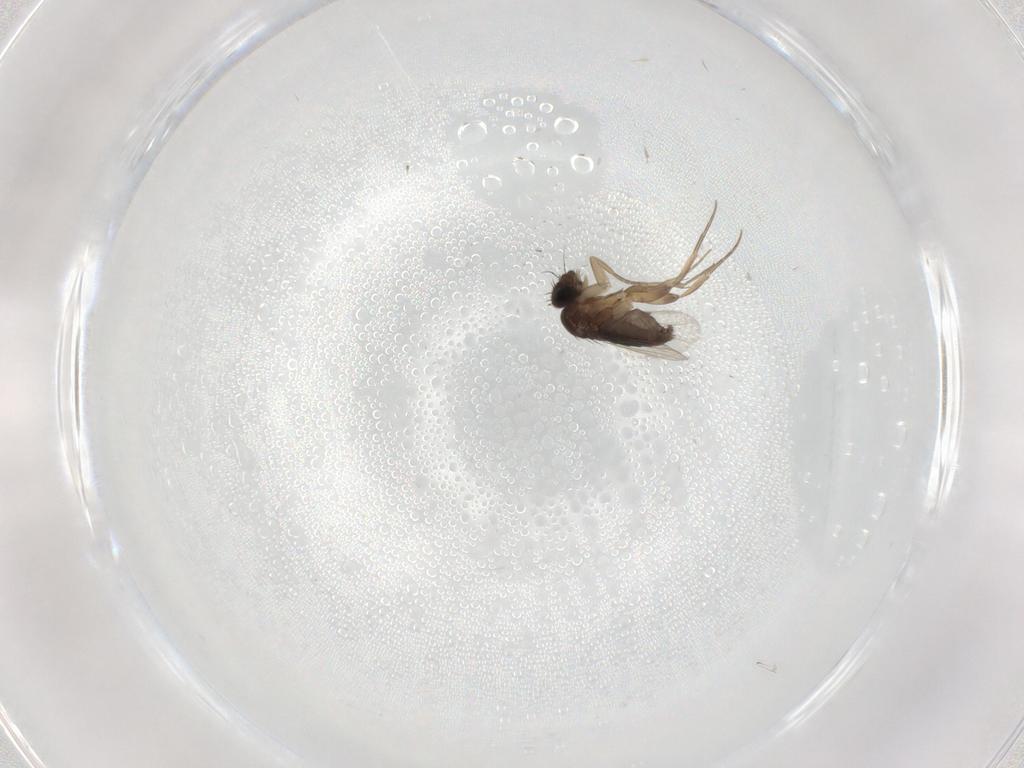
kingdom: Animalia
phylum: Arthropoda
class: Insecta
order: Diptera
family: Phoridae
